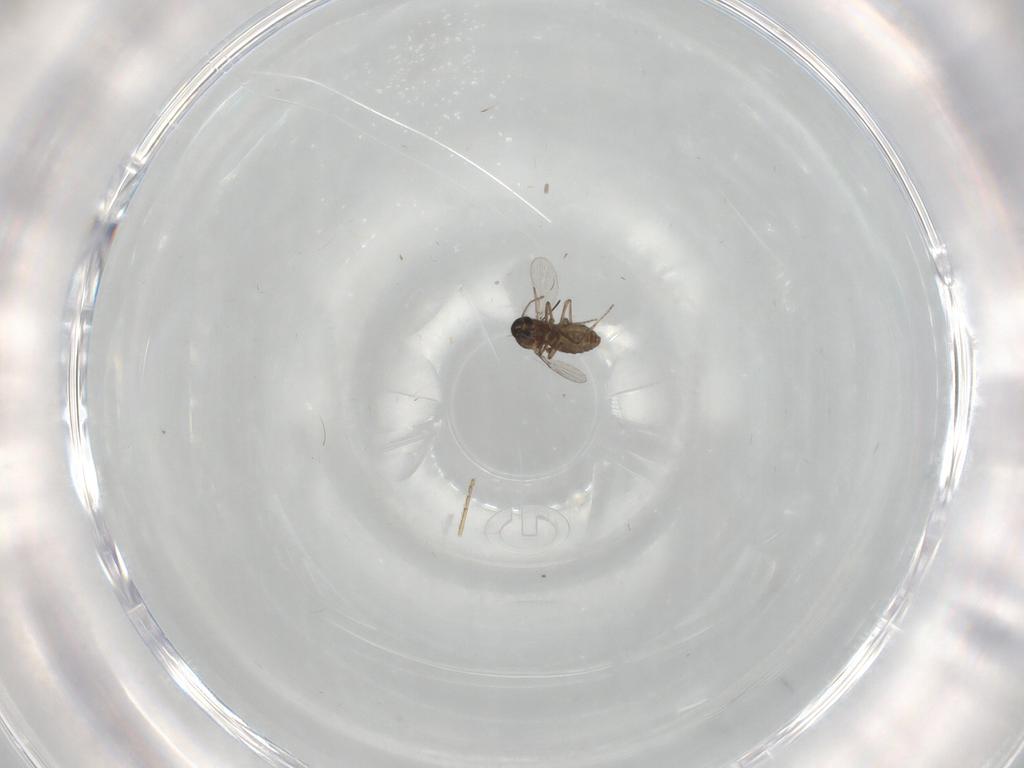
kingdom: Animalia
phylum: Arthropoda
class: Insecta
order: Diptera
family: Ceratopogonidae
